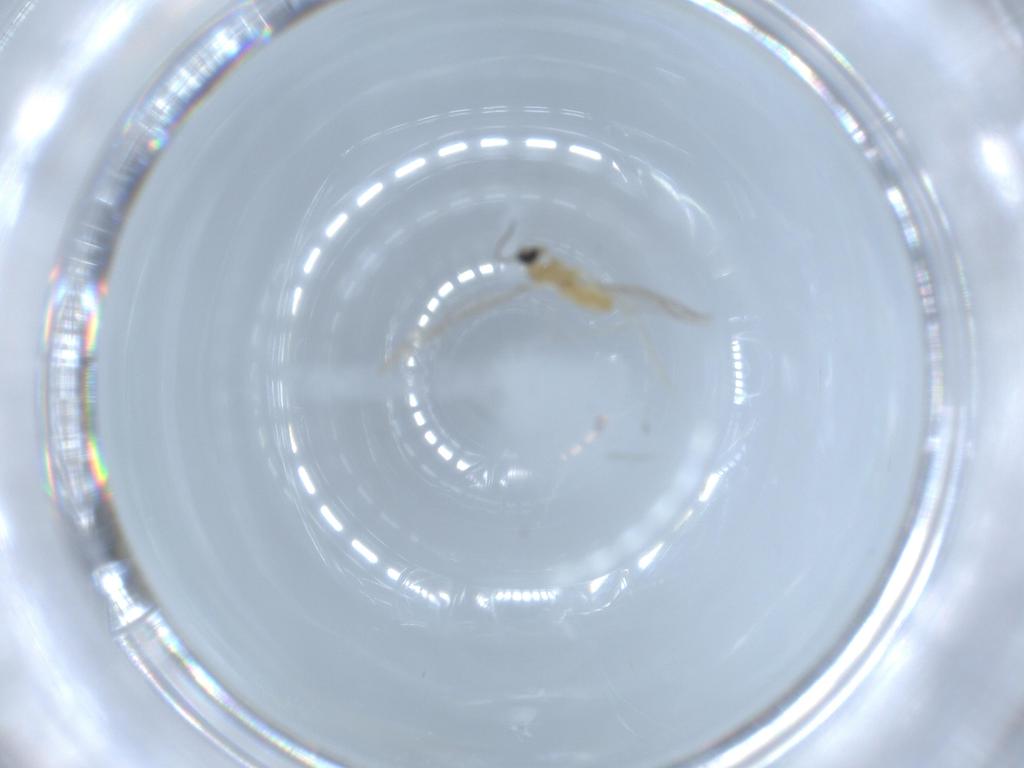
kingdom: Animalia
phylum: Arthropoda
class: Insecta
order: Diptera
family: Cecidomyiidae
